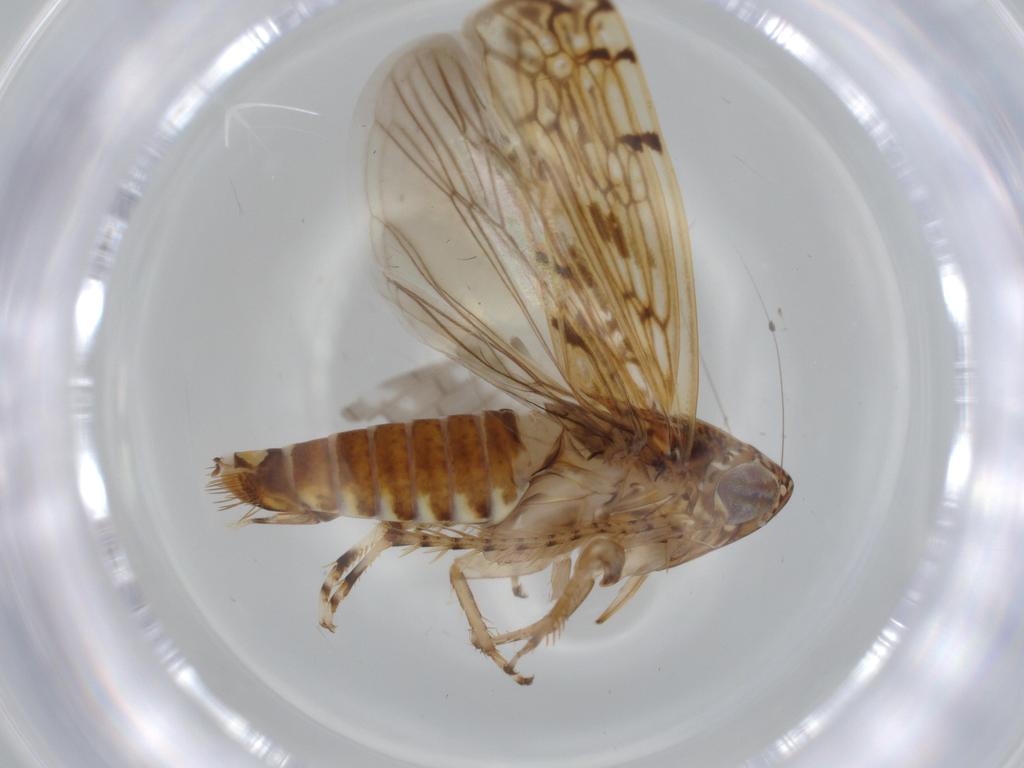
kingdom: Animalia
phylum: Arthropoda
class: Insecta
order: Hemiptera
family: Cicadellidae
